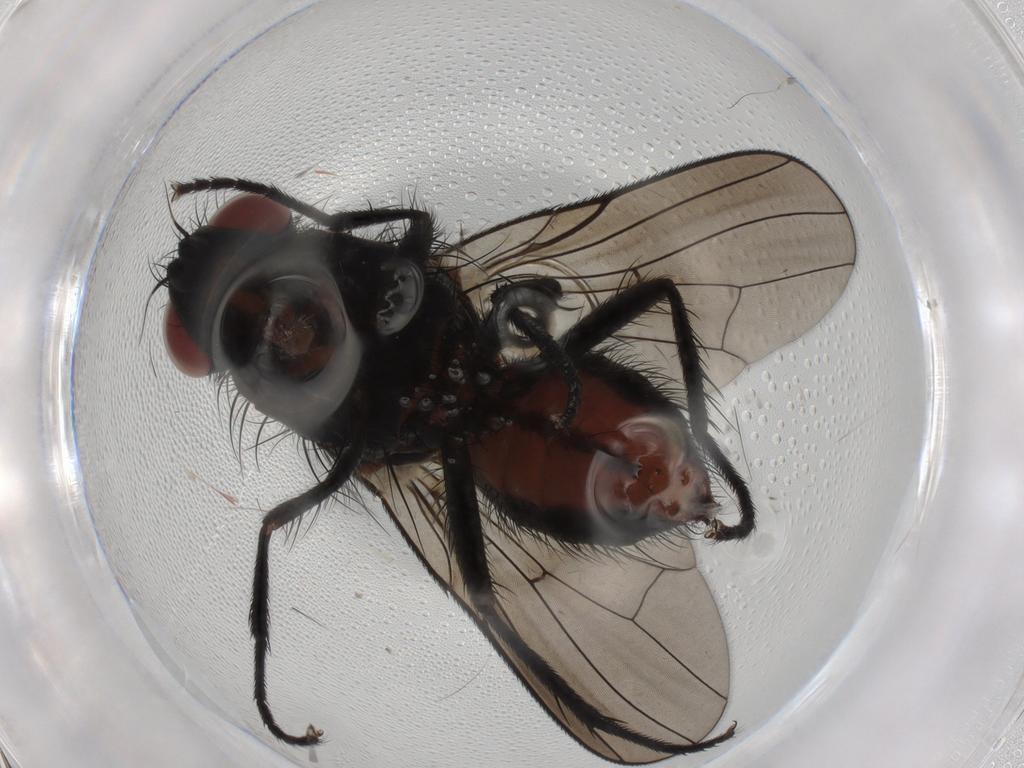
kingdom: Animalia
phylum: Arthropoda
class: Insecta
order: Diptera
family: Anthomyiidae
